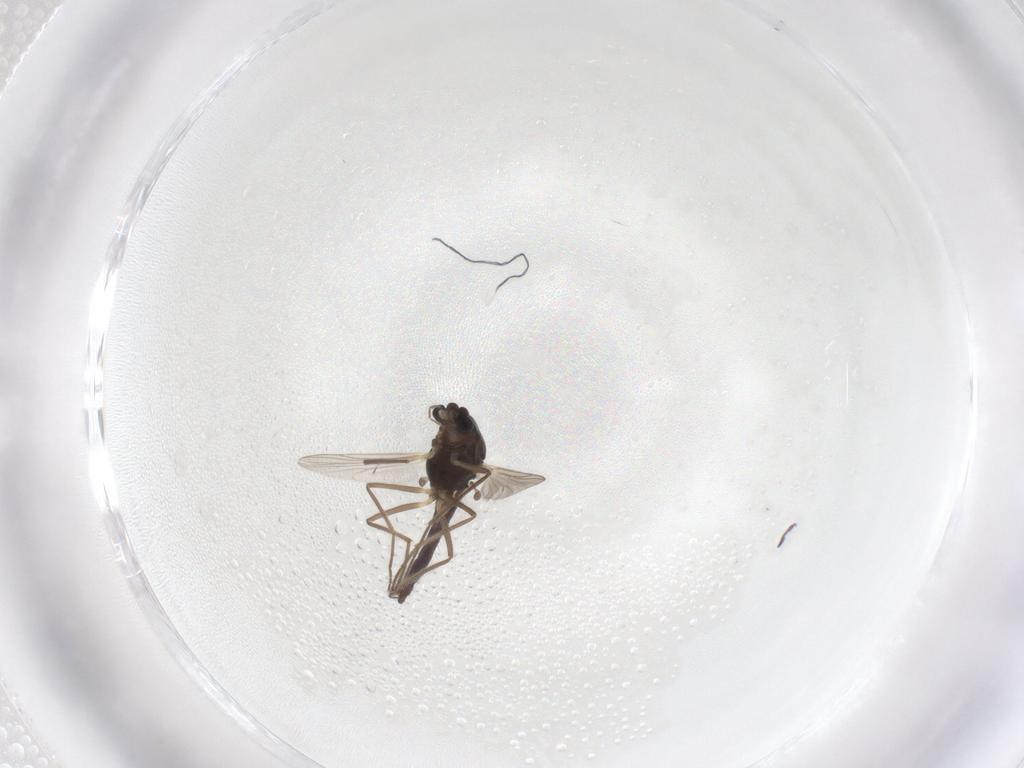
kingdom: Animalia
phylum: Arthropoda
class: Insecta
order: Diptera
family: Chironomidae
